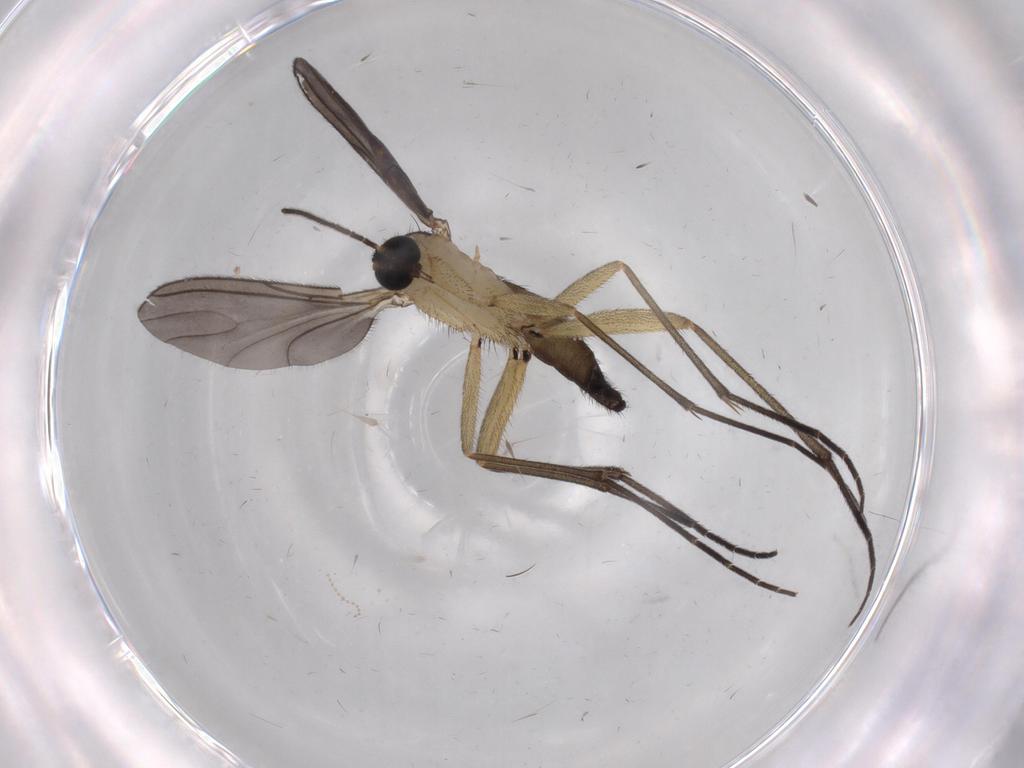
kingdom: Animalia
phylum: Arthropoda
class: Insecta
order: Diptera
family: Sciaridae
